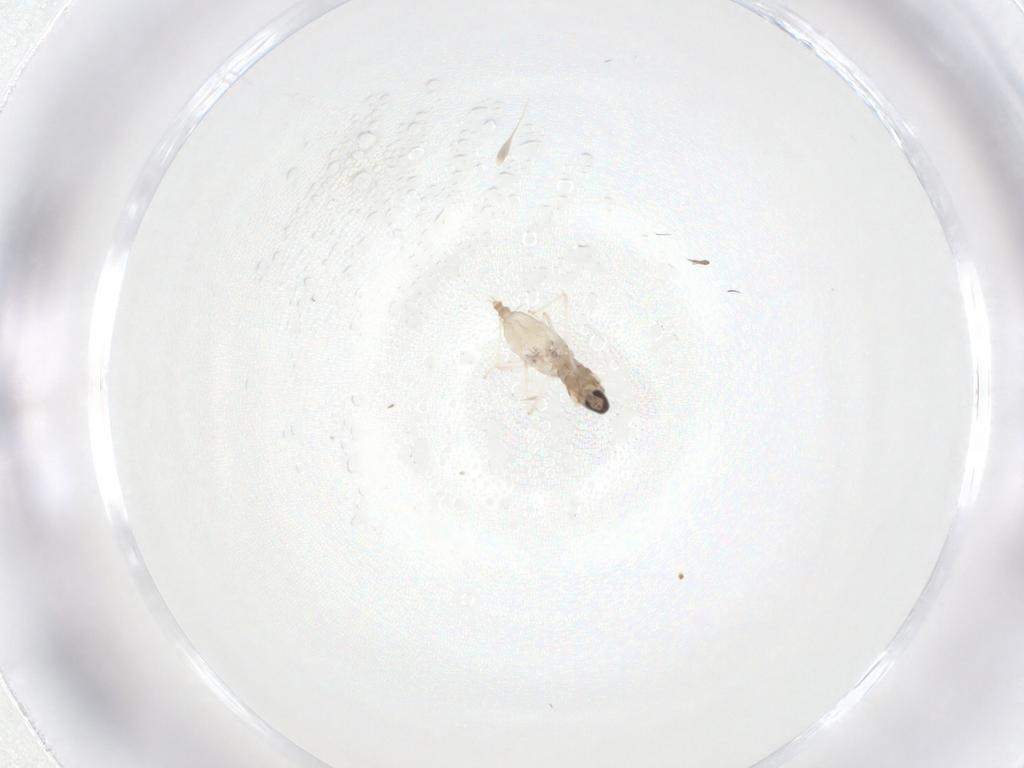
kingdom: Animalia
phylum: Arthropoda
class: Insecta
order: Diptera
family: Cecidomyiidae
